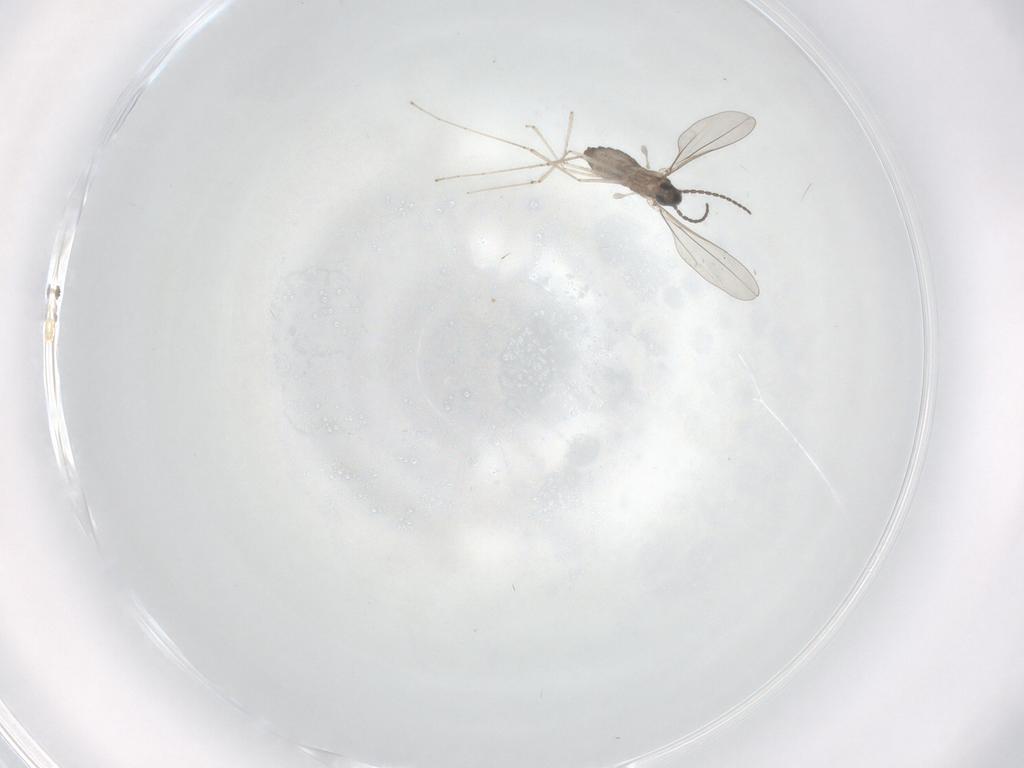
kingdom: Animalia
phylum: Arthropoda
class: Insecta
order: Diptera
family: Cecidomyiidae
